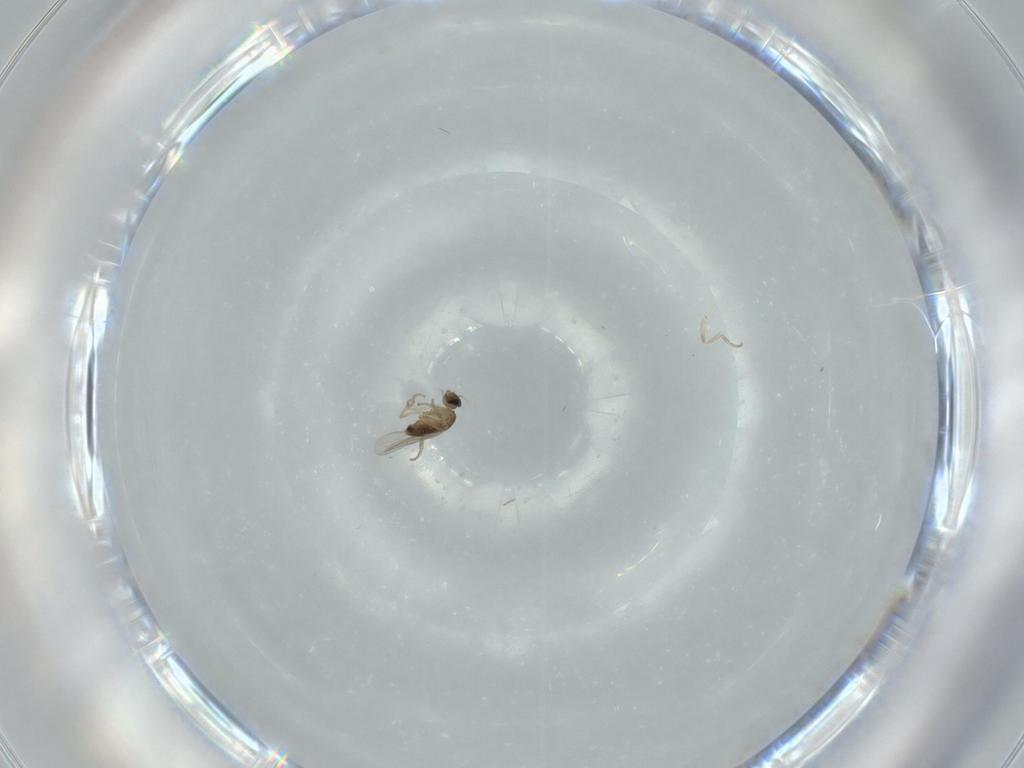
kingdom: Animalia
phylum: Arthropoda
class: Insecta
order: Diptera
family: Phoridae
